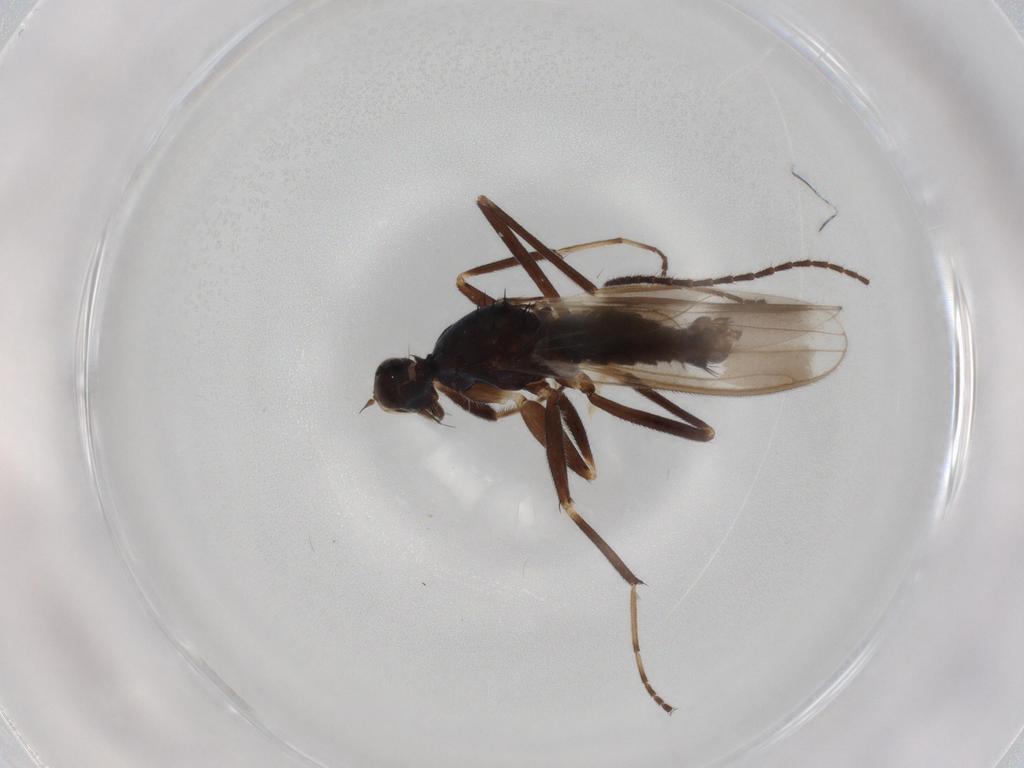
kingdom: Animalia
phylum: Arthropoda
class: Insecta
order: Diptera
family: Hybotidae
